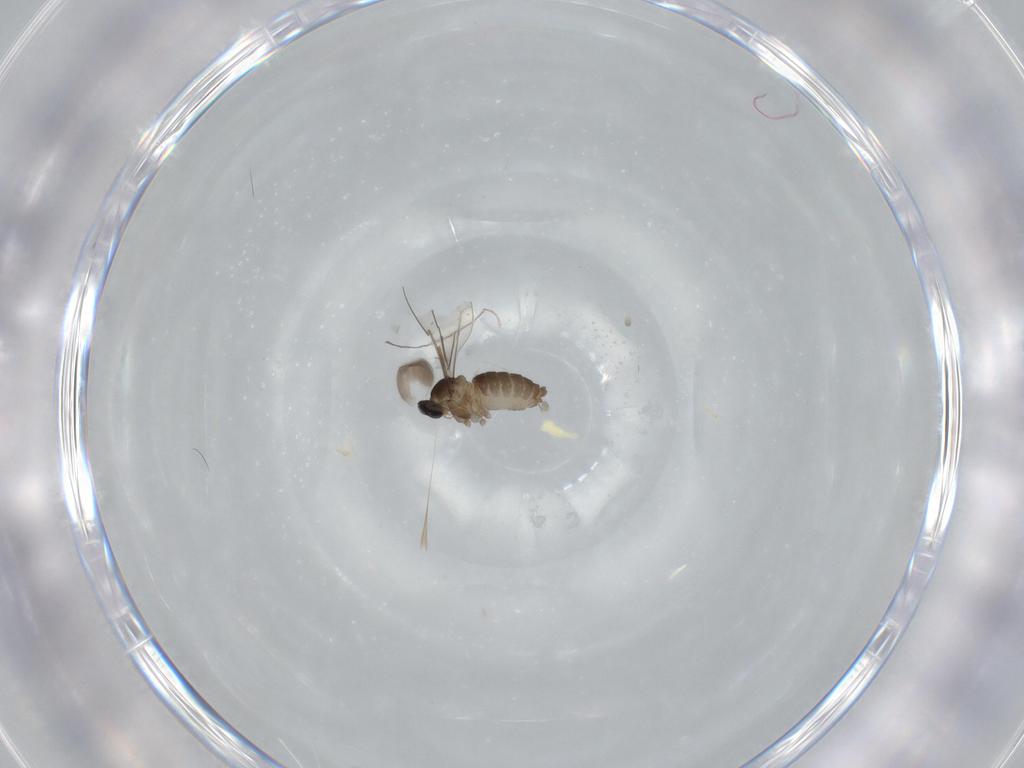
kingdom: Animalia
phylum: Arthropoda
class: Insecta
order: Diptera
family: Cecidomyiidae
